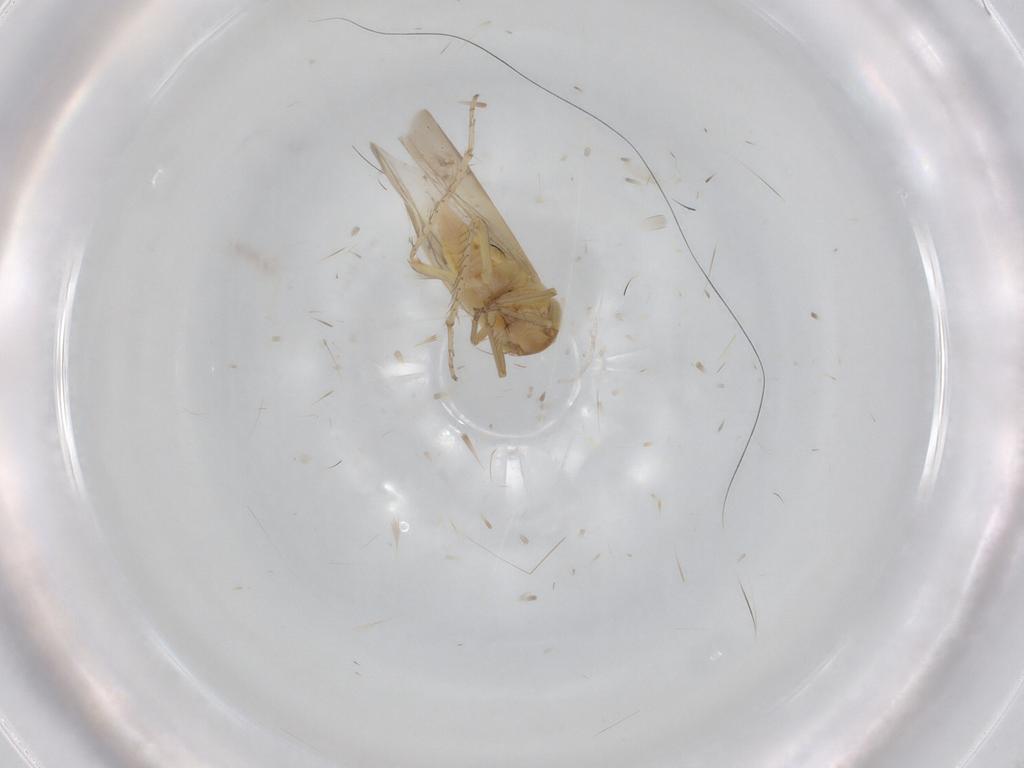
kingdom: Animalia
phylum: Arthropoda
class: Insecta
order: Hemiptera
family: Cicadellidae
